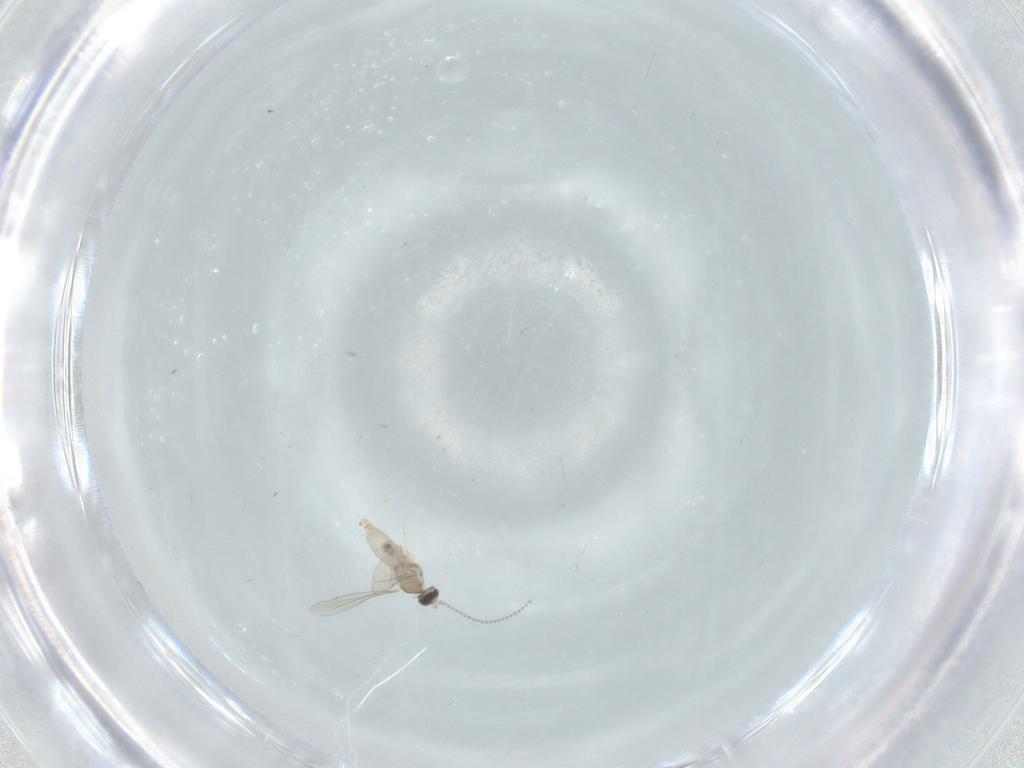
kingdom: Animalia
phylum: Arthropoda
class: Insecta
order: Diptera
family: Cecidomyiidae
